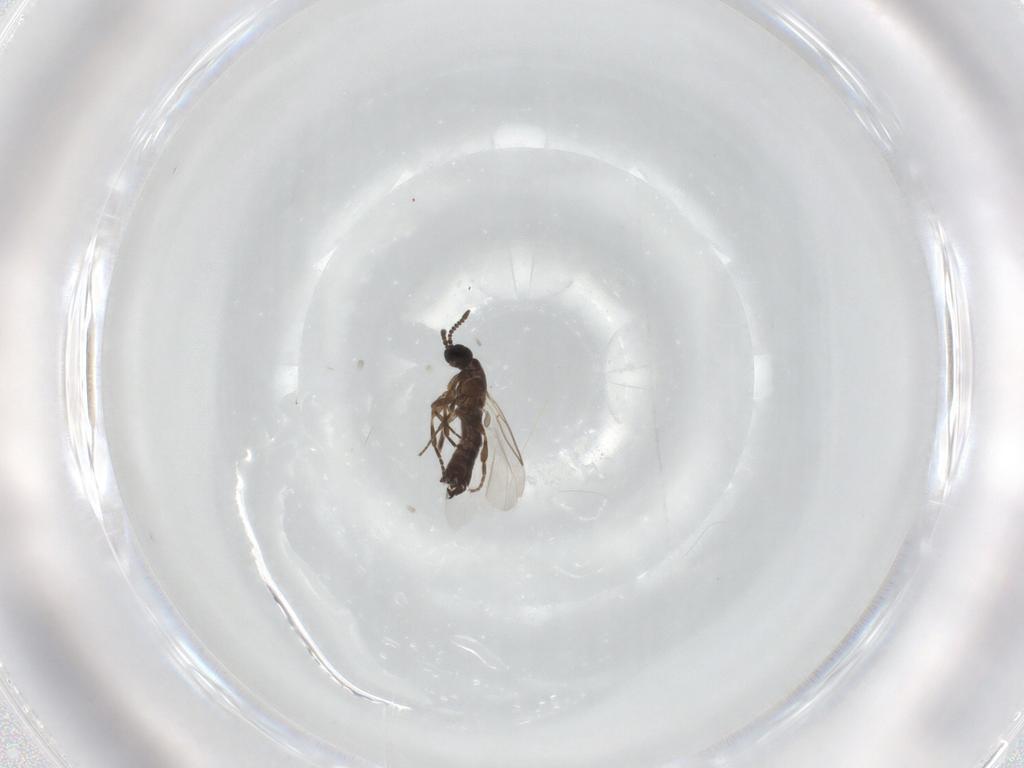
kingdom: Animalia
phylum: Arthropoda
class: Insecta
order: Diptera
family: Scatopsidae
